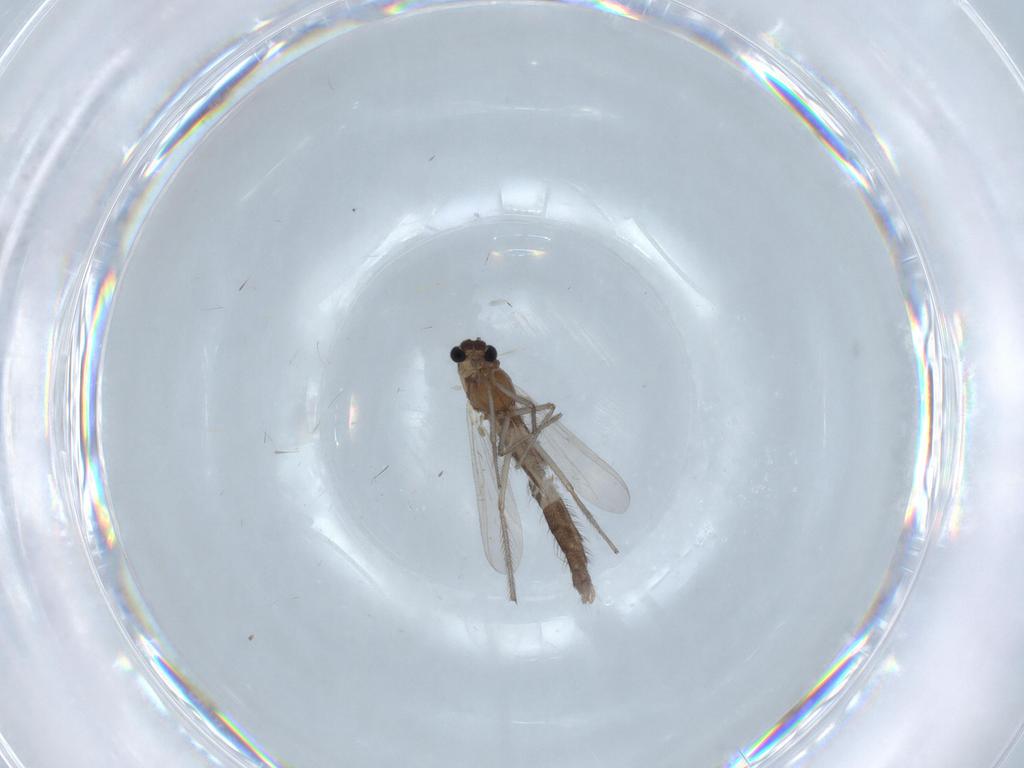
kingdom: Animalia
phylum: Arthropoda
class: Insecta
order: Diptera
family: Chironomidae
